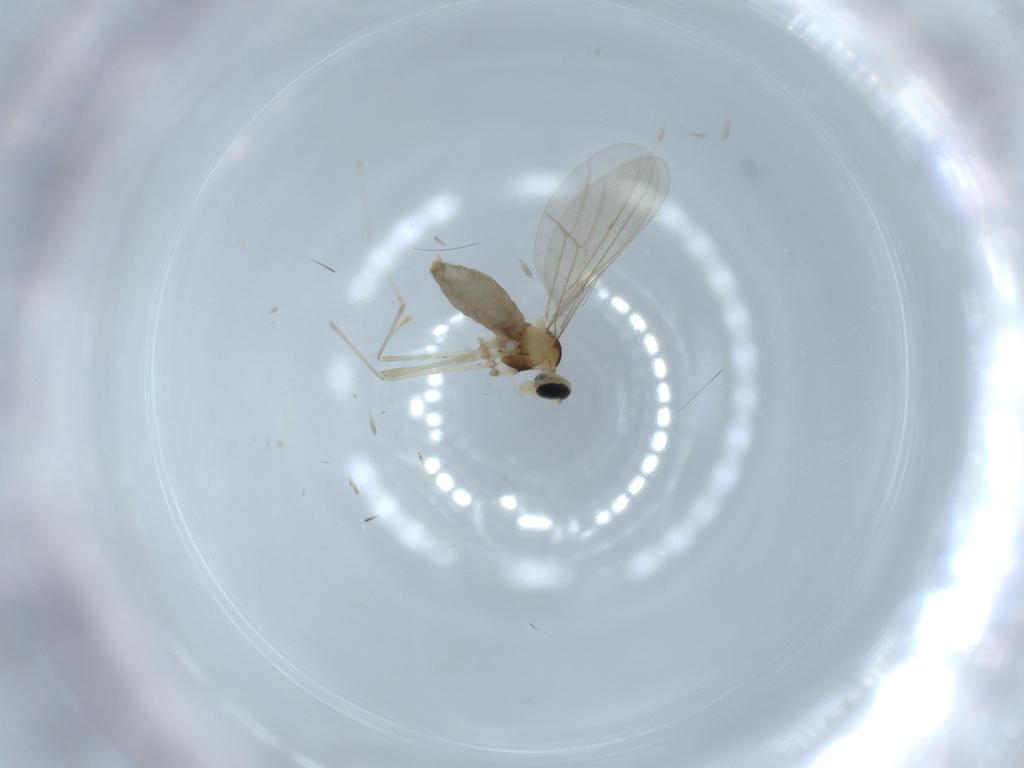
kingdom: Animalia
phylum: Arthropoda
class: Insecta
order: Diptera
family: Cecidomyiidae
